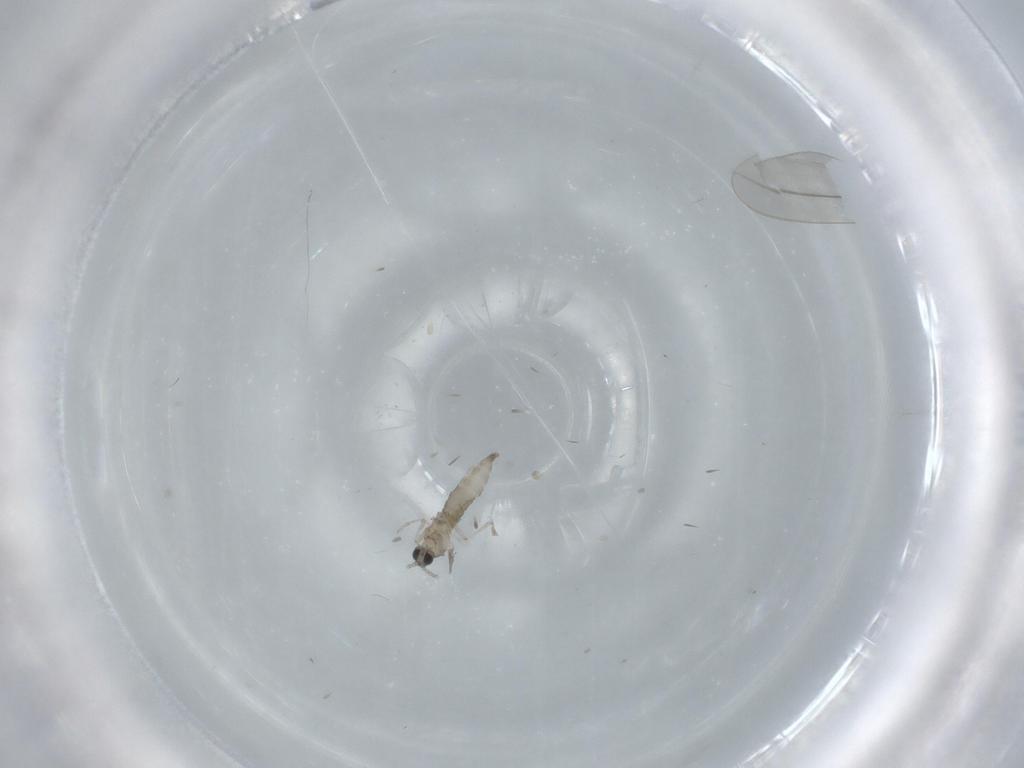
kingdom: Animalia
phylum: Arthropoda
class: Insecta
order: Diptera
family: Cecidomyiidae
